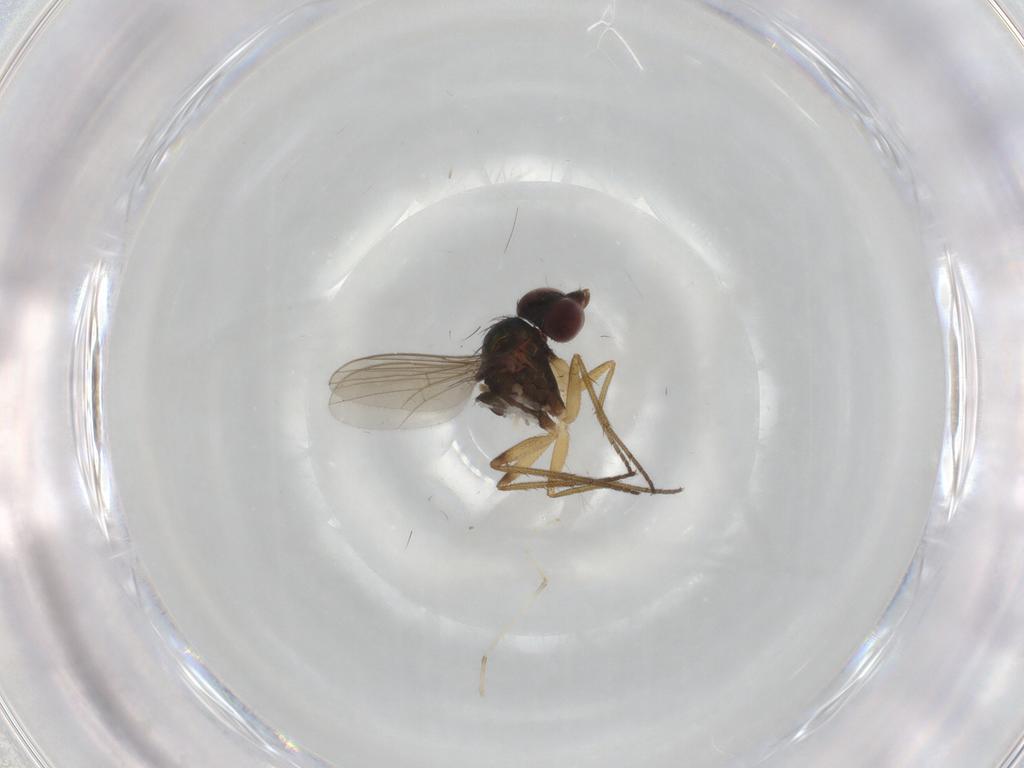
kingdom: Animalia
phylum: Arthropoda
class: Insecta
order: Diptera
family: Dolichopodidae
